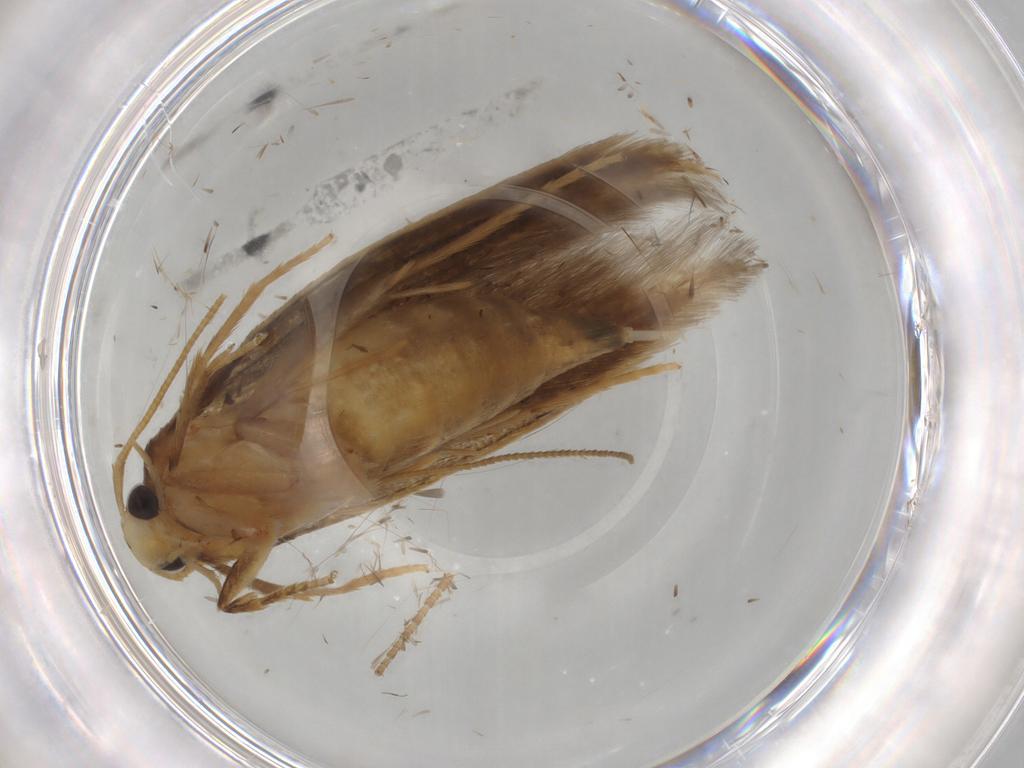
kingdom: Animalia
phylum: Arthropoda
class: Insecta
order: Lepidoptera
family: Tineidae
